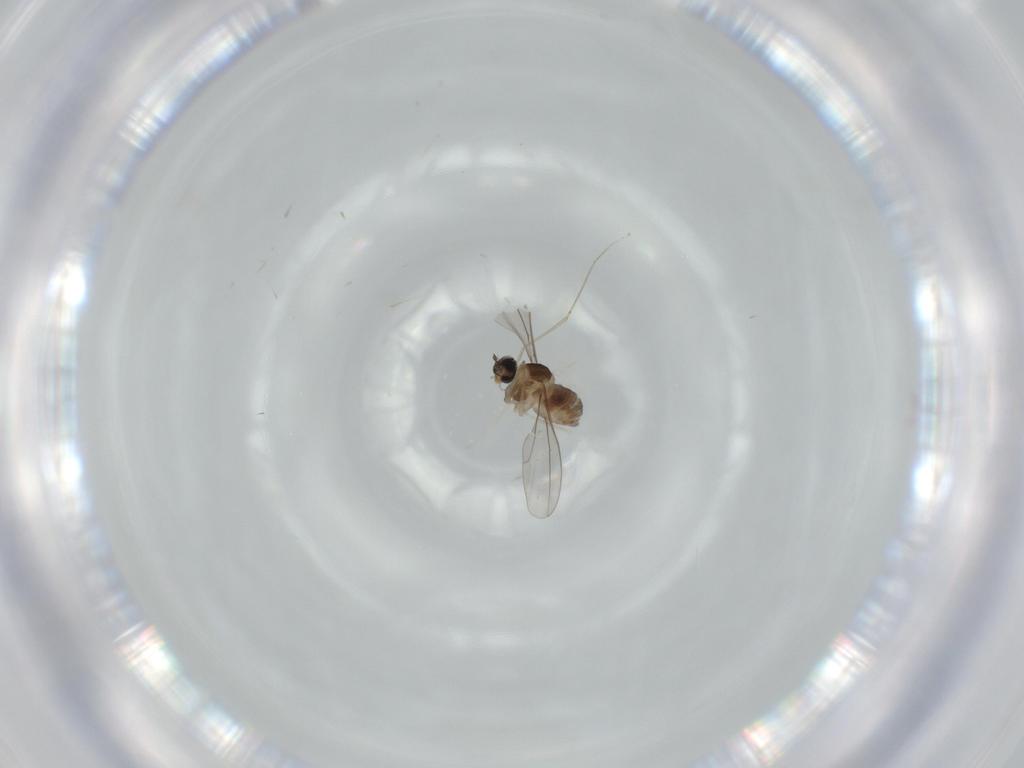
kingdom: Animalia
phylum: Arthropoda
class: Insecta
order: Diptera
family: Cecidomyiidae
